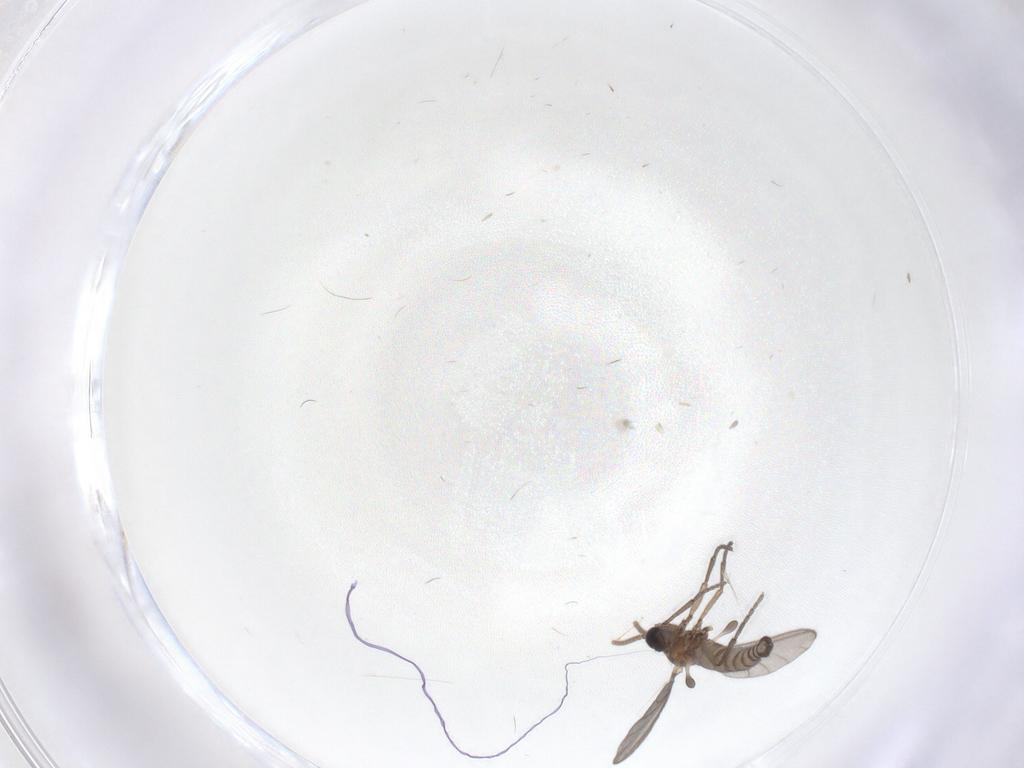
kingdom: Animalia
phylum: Arthropoda
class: Insecta
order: Diptera
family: Sciaridae
